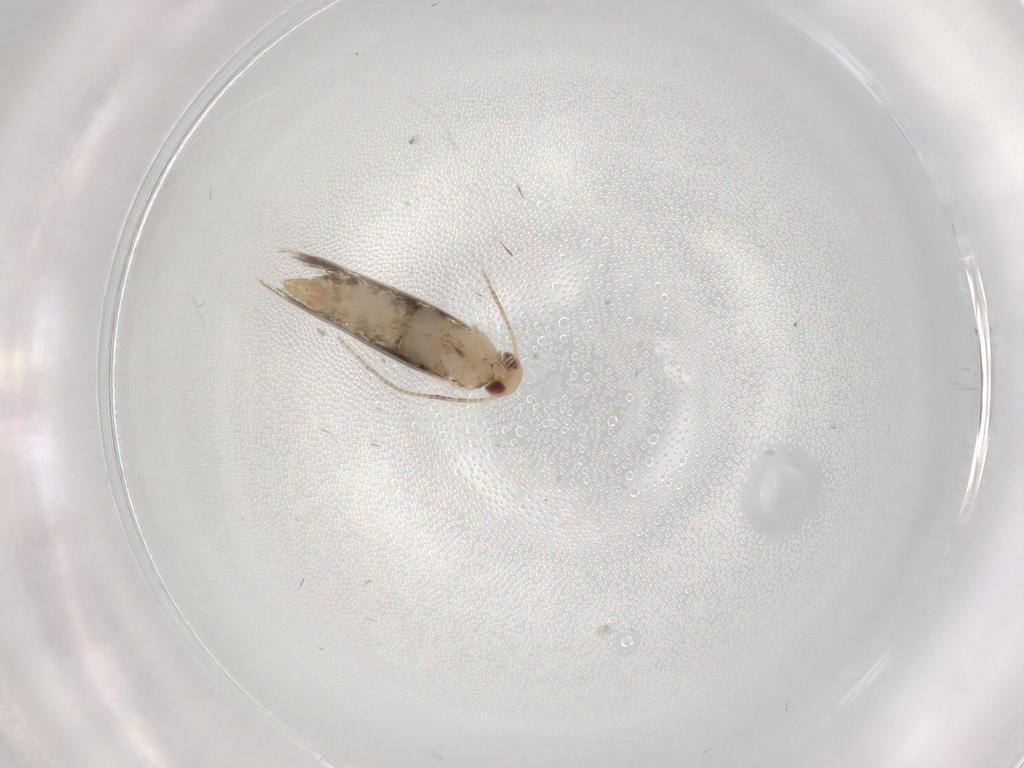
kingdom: Animalia
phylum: Arthropoda
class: Insecta
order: Lepidoptera
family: Gracillariidae
